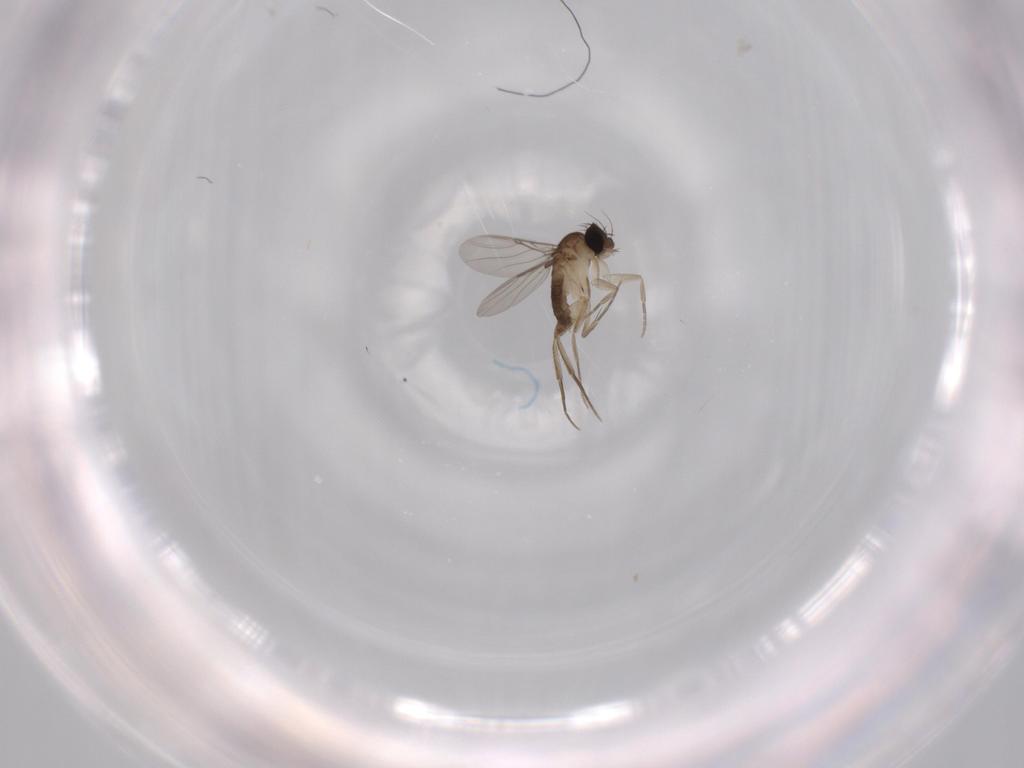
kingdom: Animalia
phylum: Arthropoda
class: Insecta
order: Diptera
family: Phoridae
